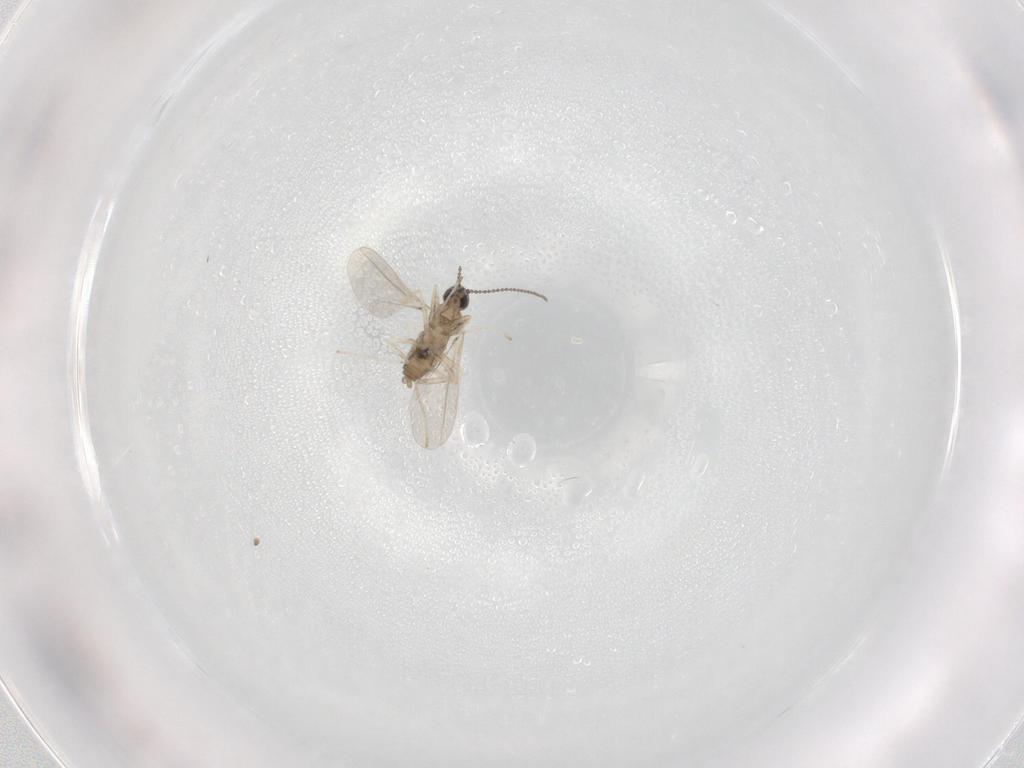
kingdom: Animalia
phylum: Arthropoda
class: Insecta
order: Diptera
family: Cecidomyiidae
